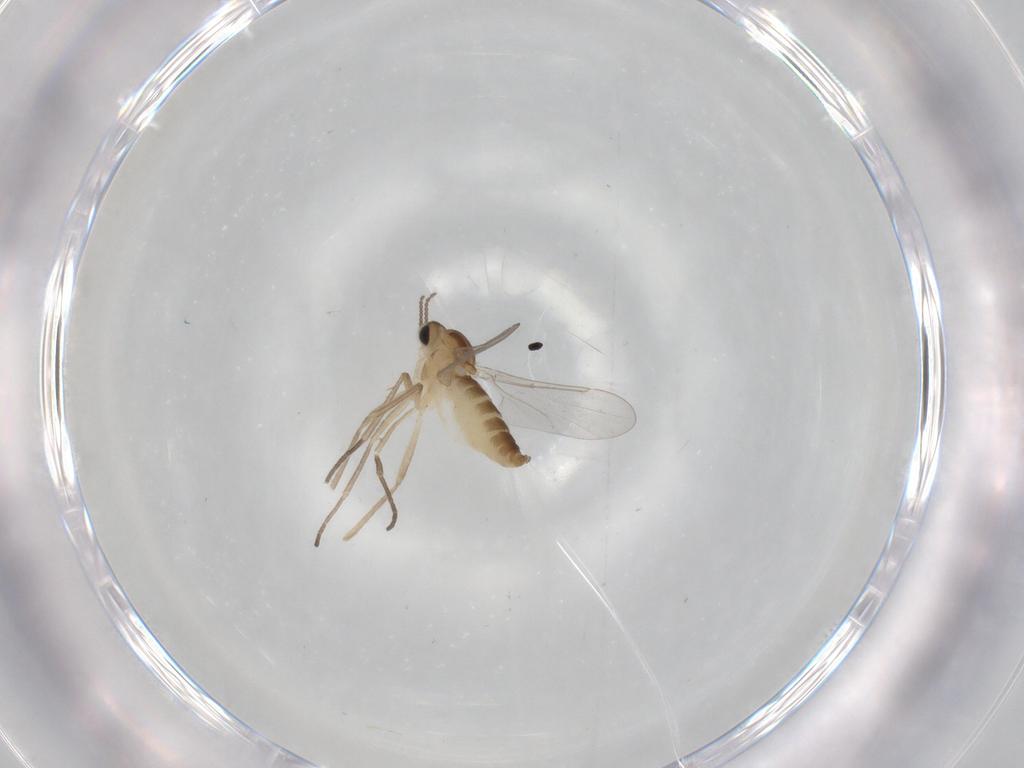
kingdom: Animalia
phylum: Arthropoda
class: Insecta
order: Diptera
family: Cecidomyiidae
